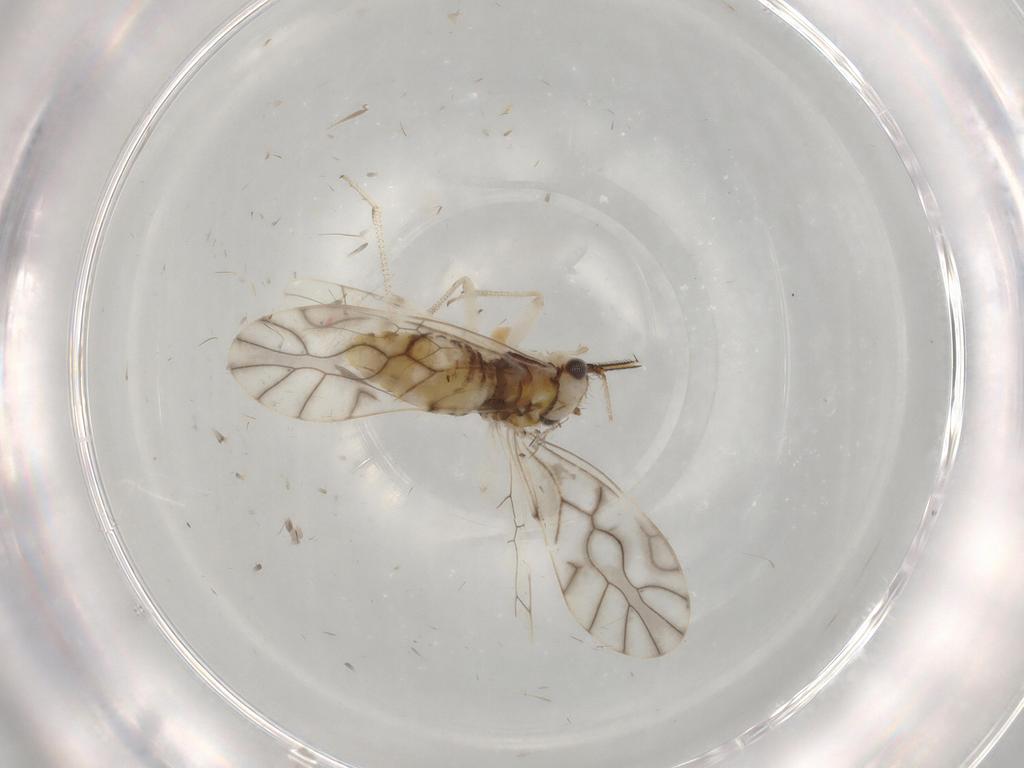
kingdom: Animalia
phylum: Arthropoda
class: Insecta
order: Psocodea
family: Caeciliusidae
